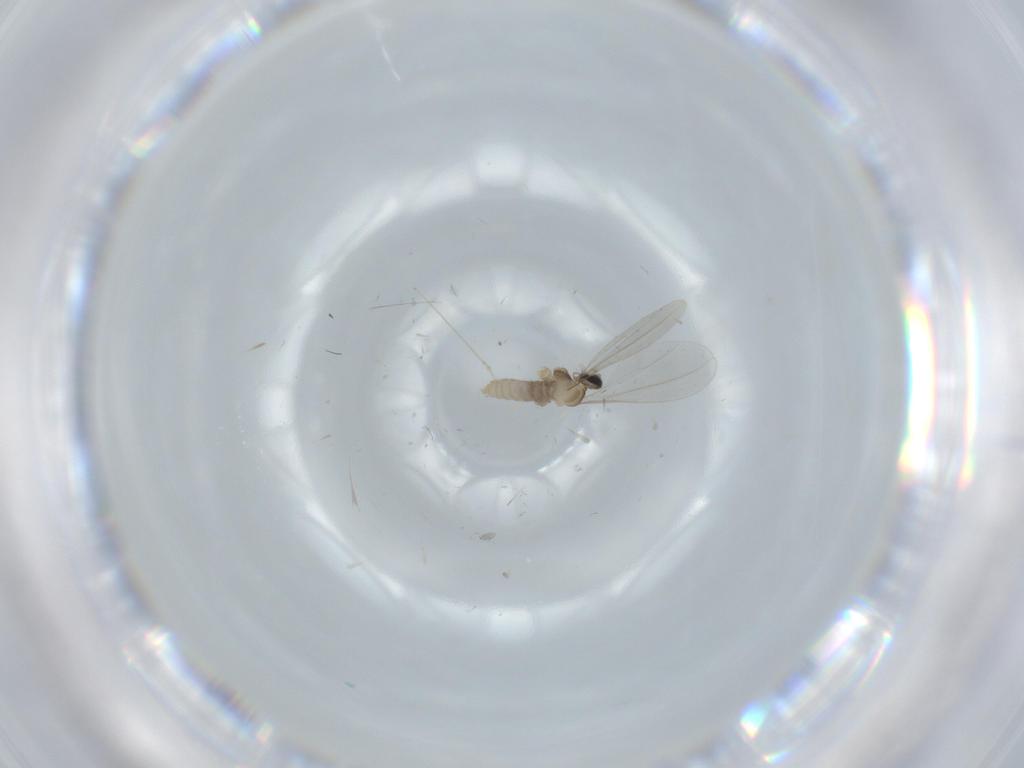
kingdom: Animalia
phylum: Arthropoda
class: Insecta
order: Diptera
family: Cecidomyiidae
